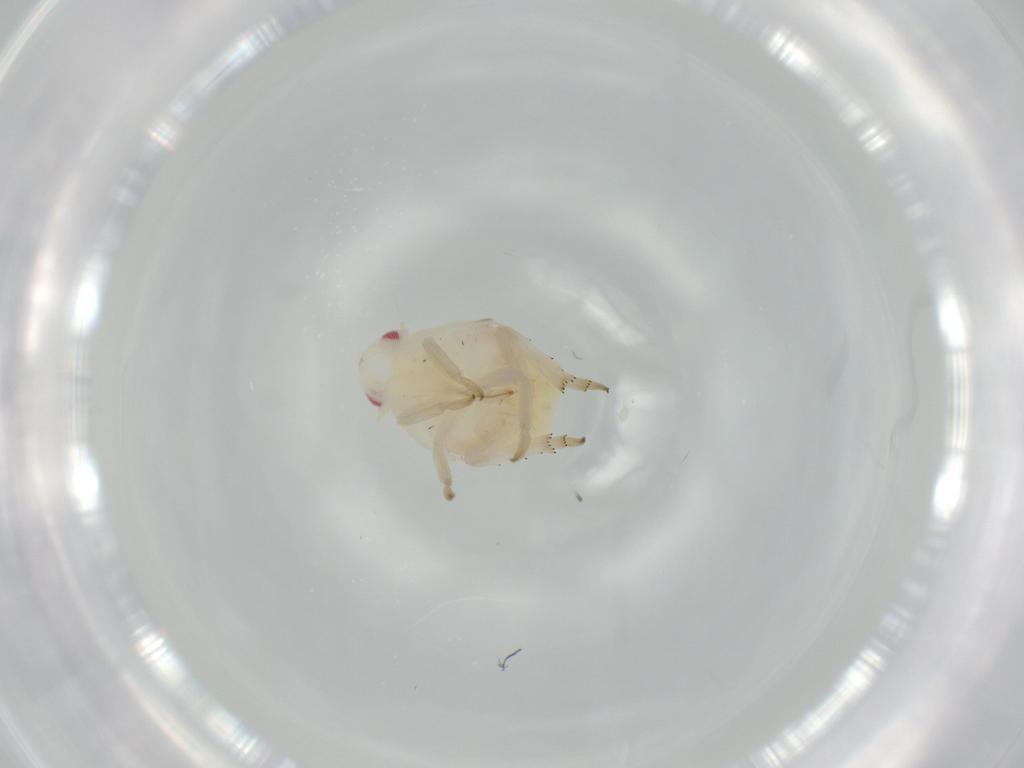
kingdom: Animalia
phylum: Arthropoda
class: Insecta
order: Hemiptera
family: Flatidae
